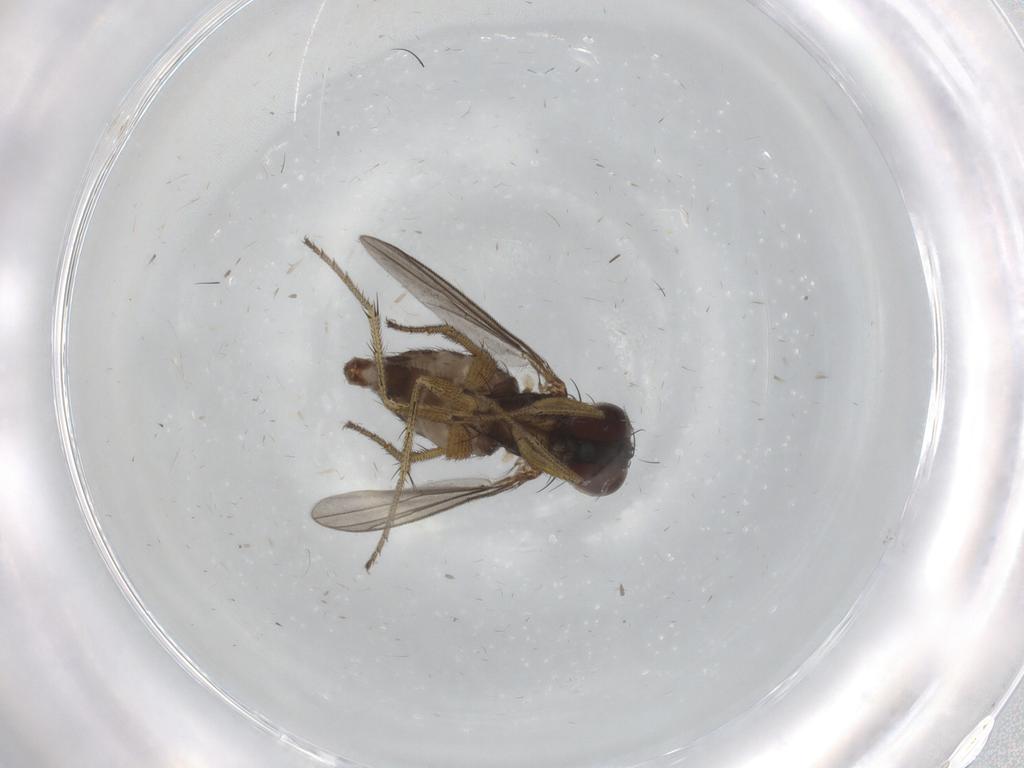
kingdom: Animalia
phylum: Arthropoda
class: Insecta
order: Diptera
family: Dolichopodidae
